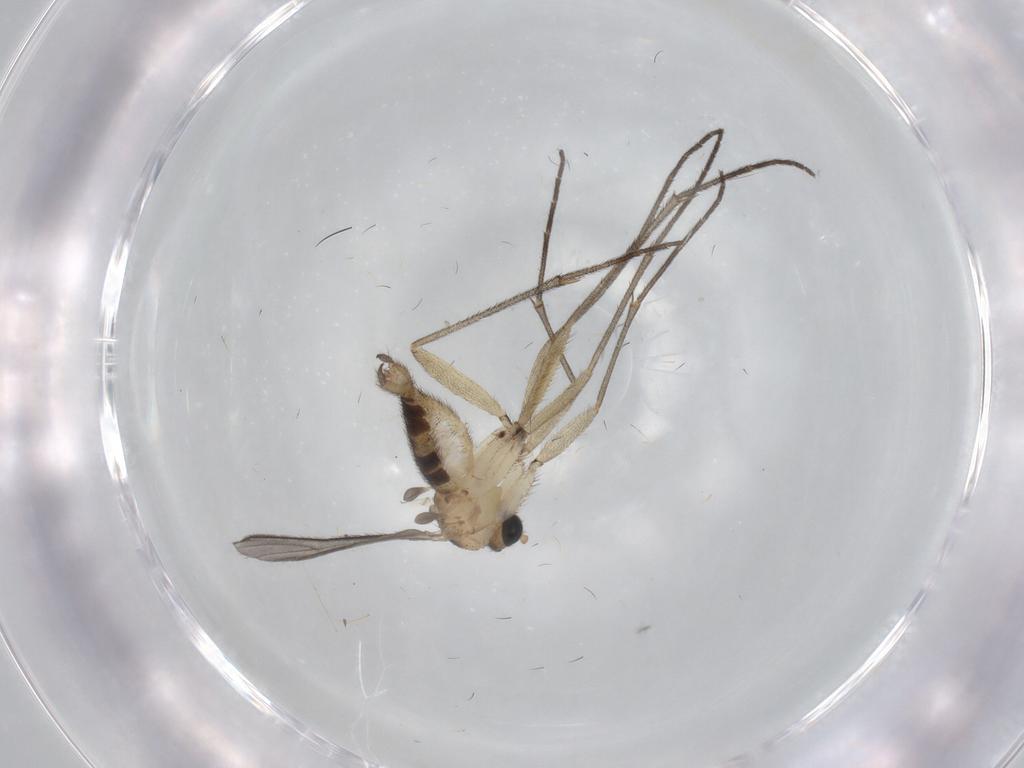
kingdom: Animalia
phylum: Arthropoda
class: Insecta
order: Diptera
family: Sciaridae
